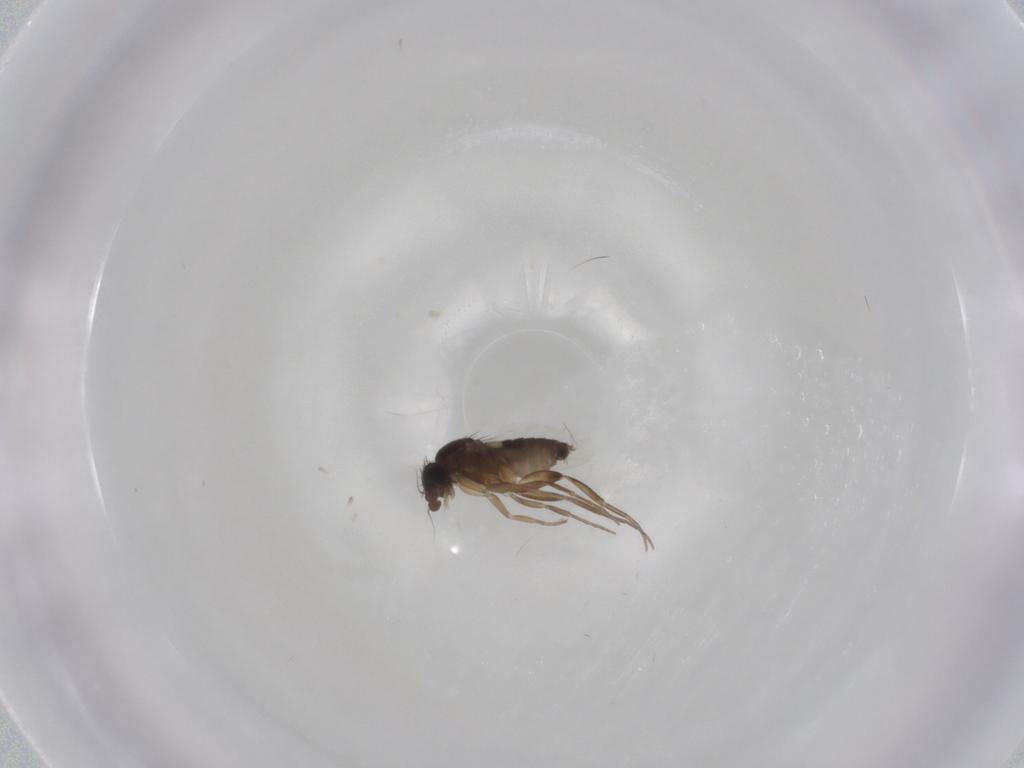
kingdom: Animalia
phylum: Arthropoda
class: Insecta
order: Diptera
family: Phoridae
